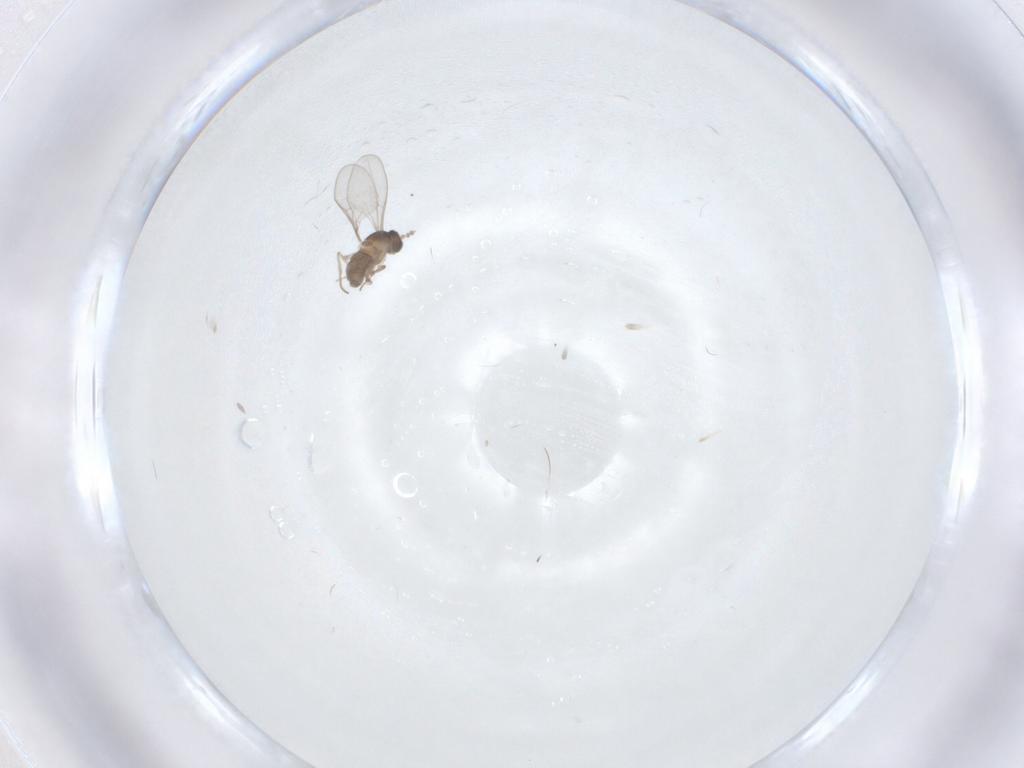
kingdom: Animalia
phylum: Arthropoda
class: Insecta
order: Diptera
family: Cecidomyiidae
